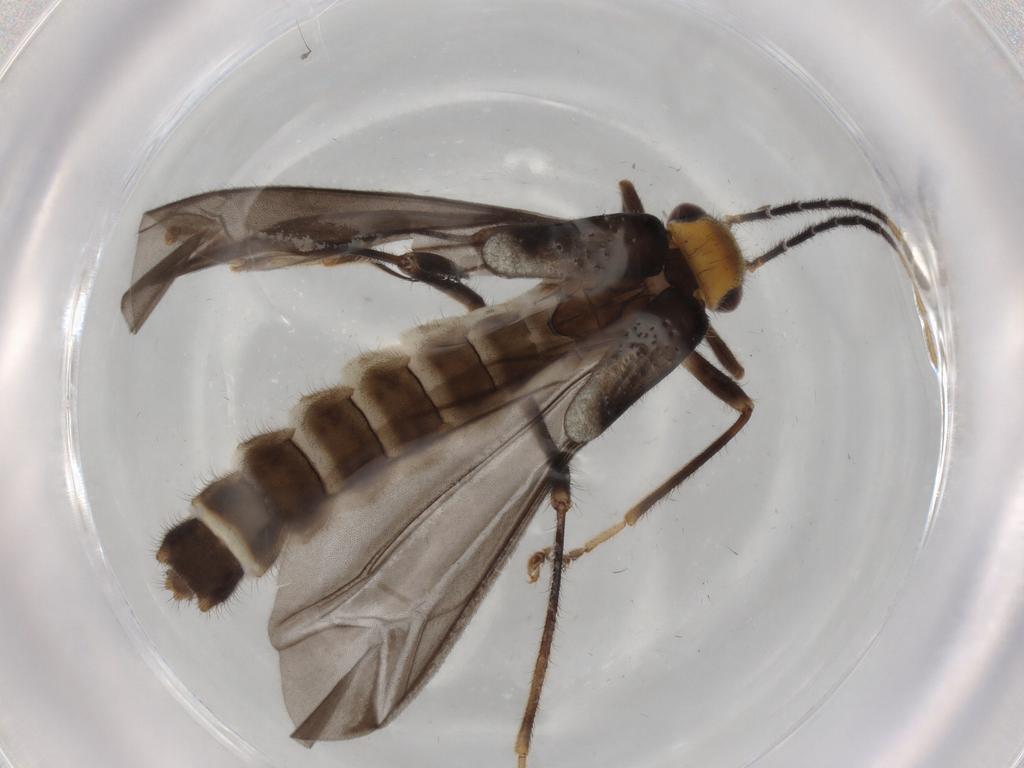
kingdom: Animalia
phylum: Arthropoda
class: Insecta
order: Coleoptera
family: Cantharidae
